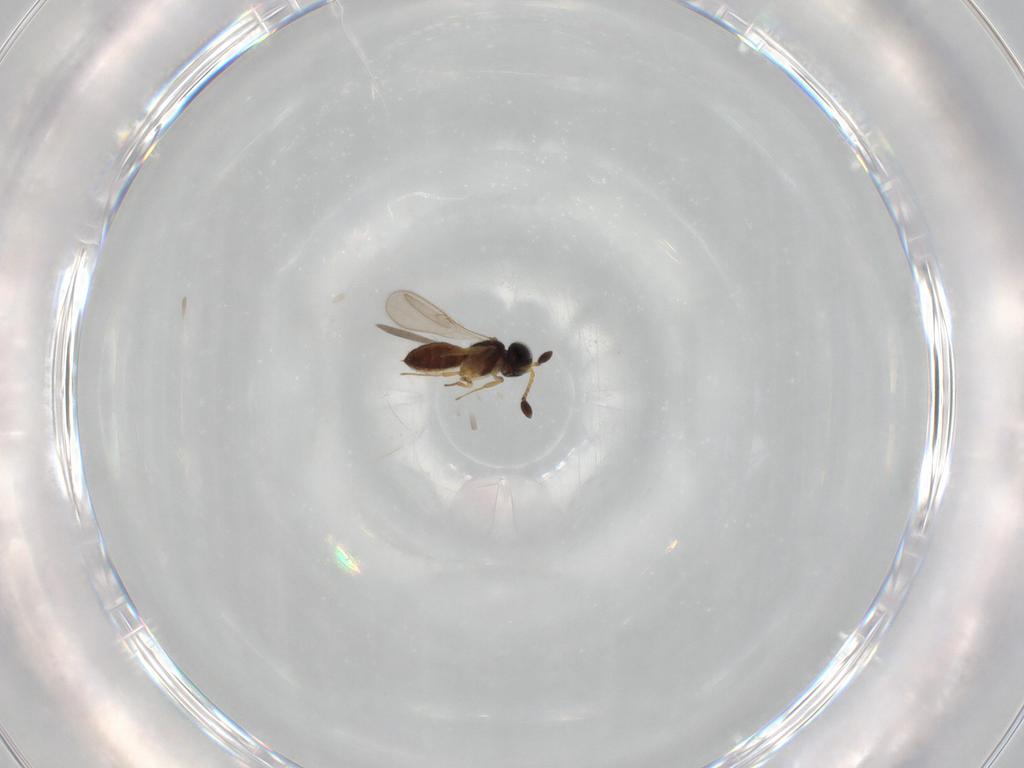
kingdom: Animalia
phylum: Arthropoda
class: Insecta
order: Hymenoptera
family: Scelionidae
